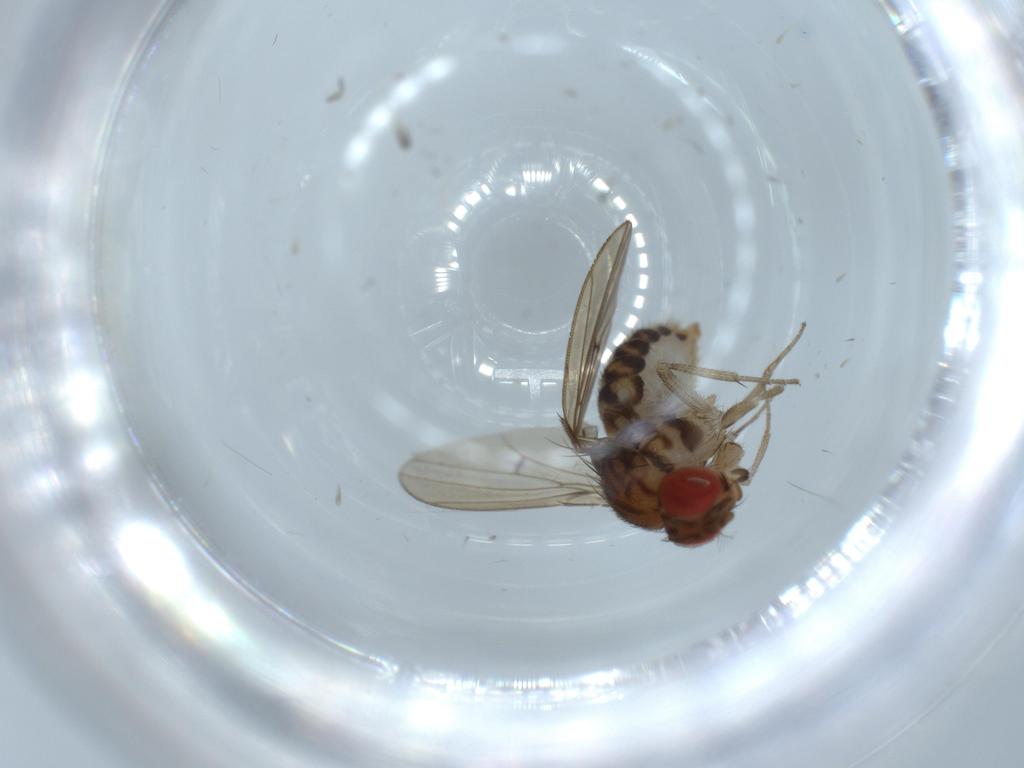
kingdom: Animalia
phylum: Arthropoda
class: Insecta
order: Diptera
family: Drosophilidae
